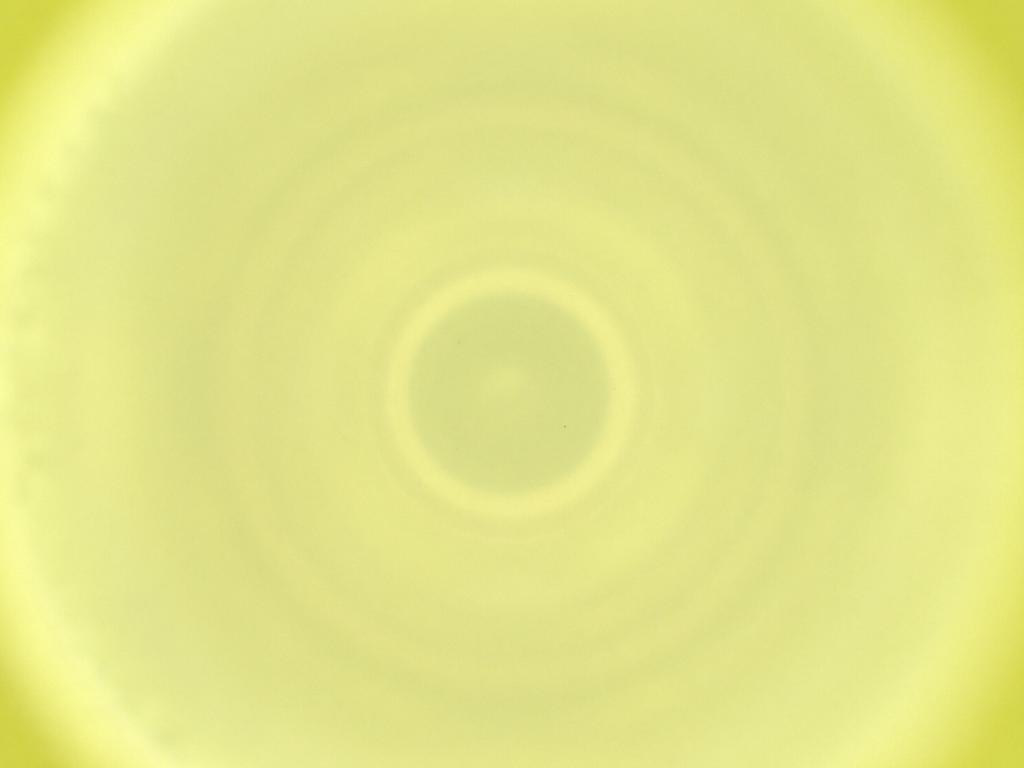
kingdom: Animalia
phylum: Arthropoda
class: Insecta
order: Diptera
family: Cecidomyiidae
